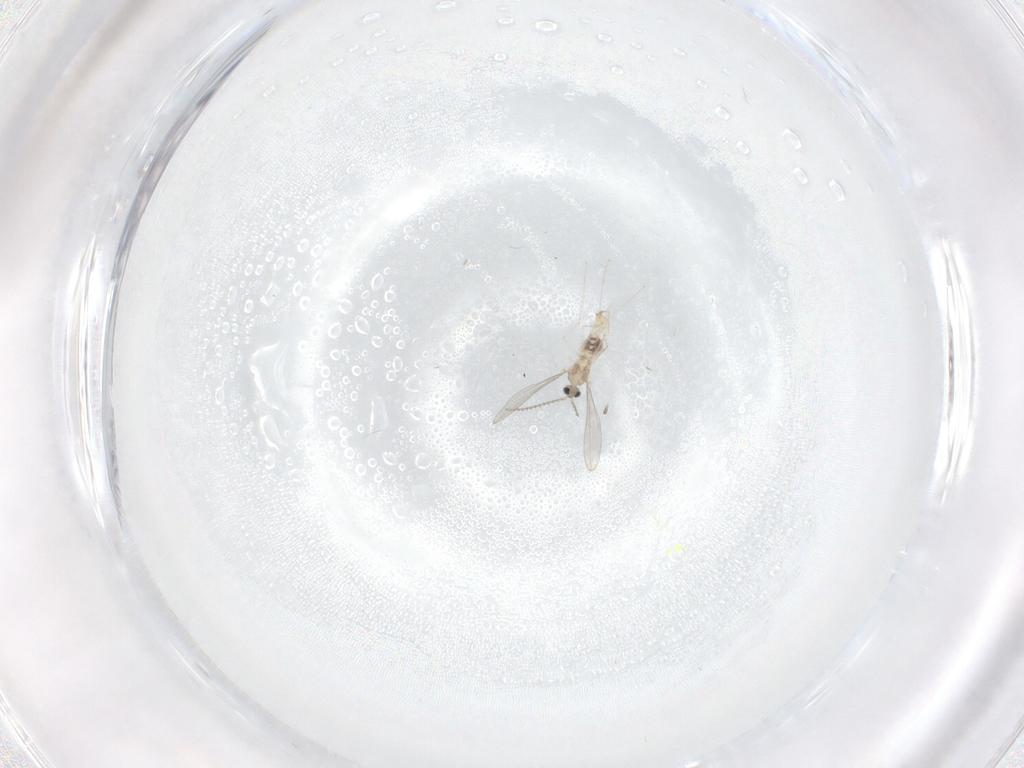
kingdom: Animalia
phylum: Arthropoda
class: Insecta
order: Diptera
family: Cecidomyiidae
